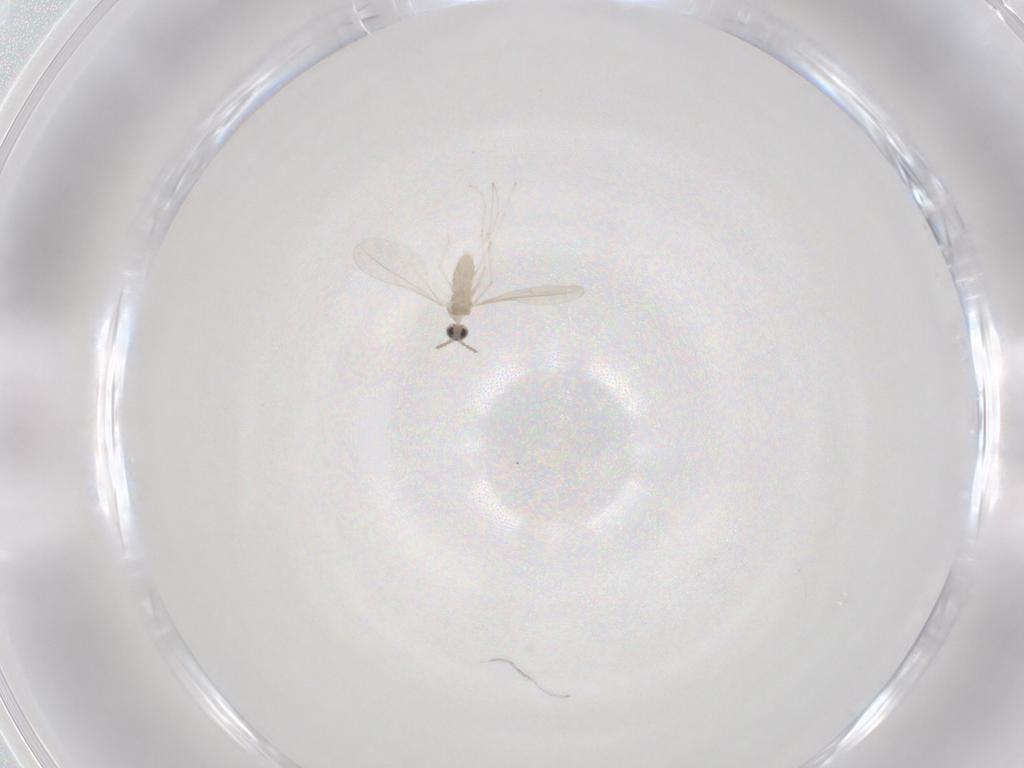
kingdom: Animalia
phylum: Arthropoda
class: Insecta
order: Diptera
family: Cecidomyiidae
